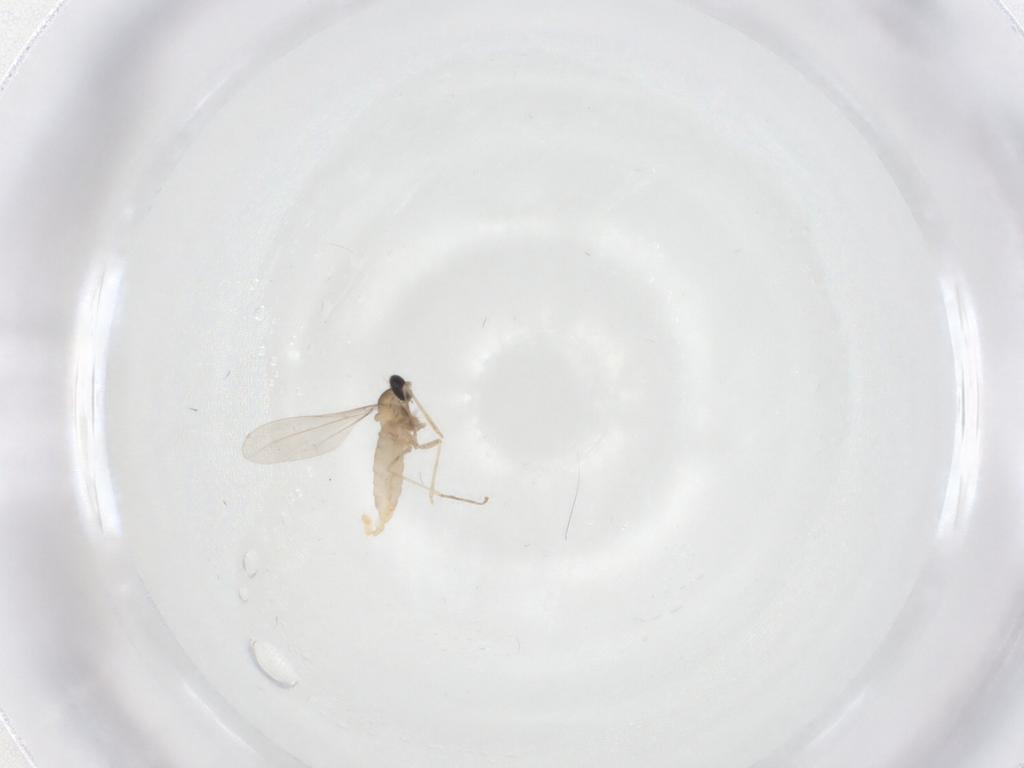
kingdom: Animalia
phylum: Arthropoda
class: Insecta
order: Diptera
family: Cecidomyiidae
